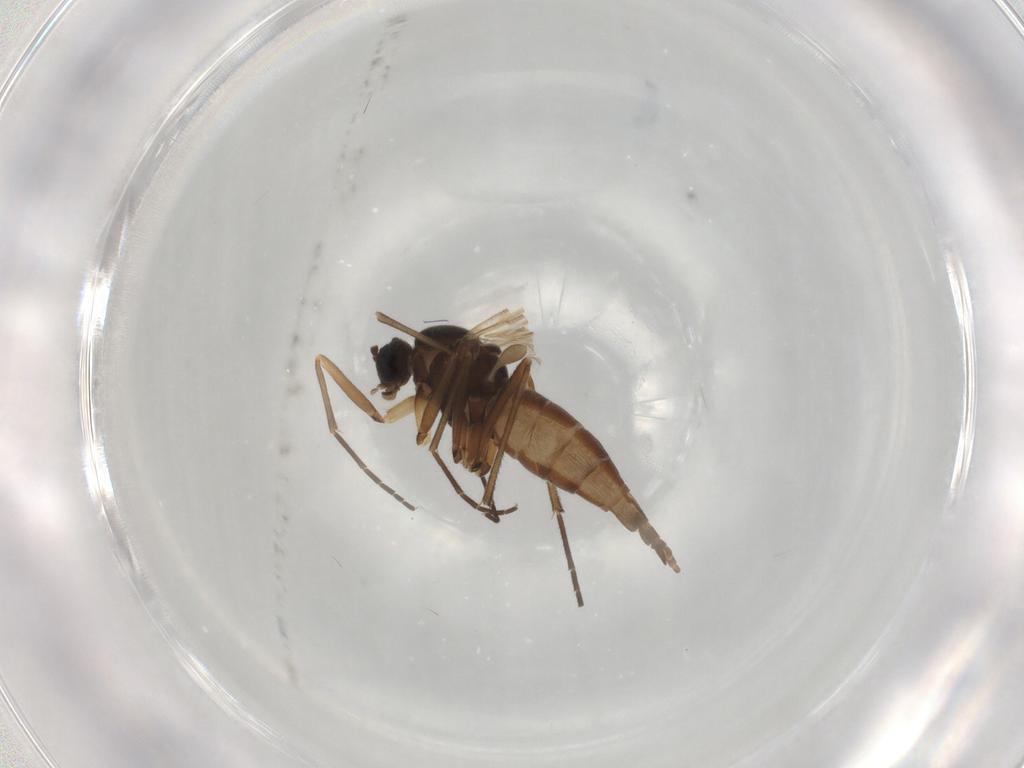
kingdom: Animalia
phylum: Arthropoda
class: Insecta
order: Diptera
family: Sciaridae
